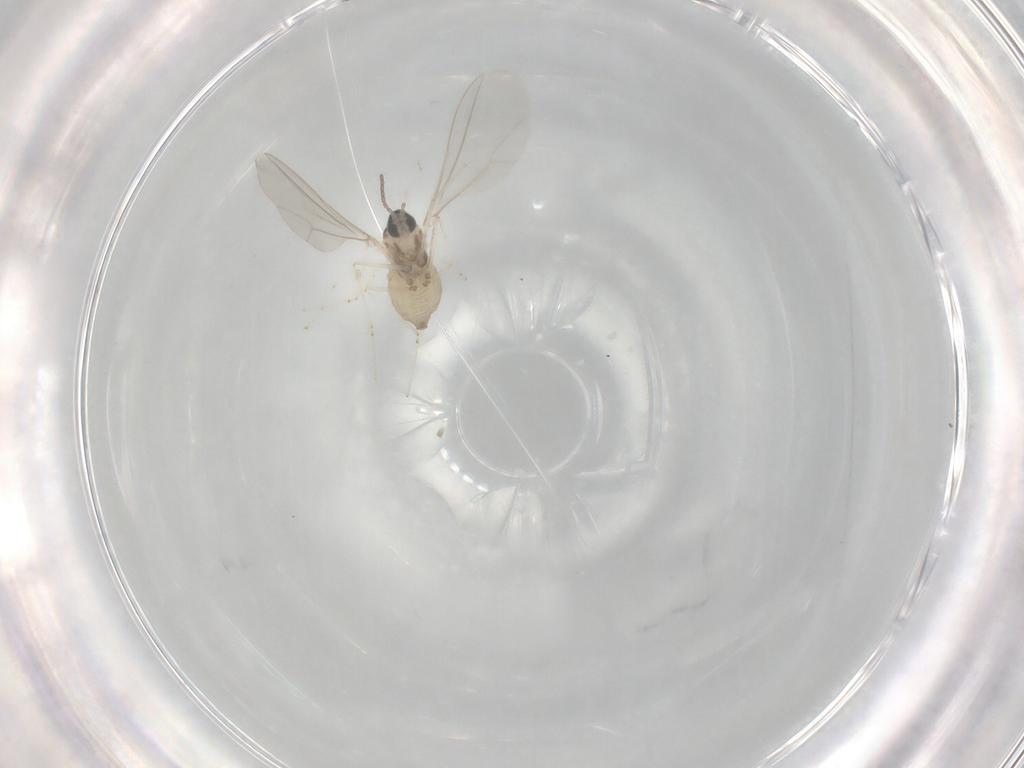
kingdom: Animalia
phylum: Arthropoda
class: Insecta
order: Diptera
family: Cecidomyiidae
